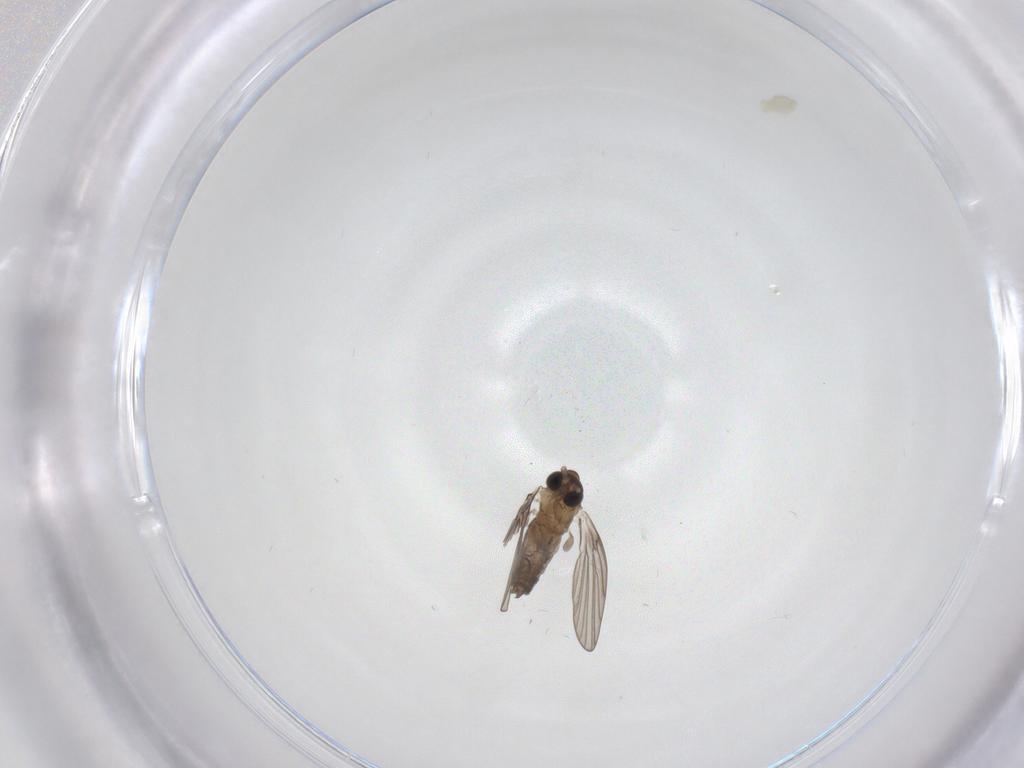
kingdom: Animalia
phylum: Arthropoda
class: Insecta
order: Diptera
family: Psychodidae
